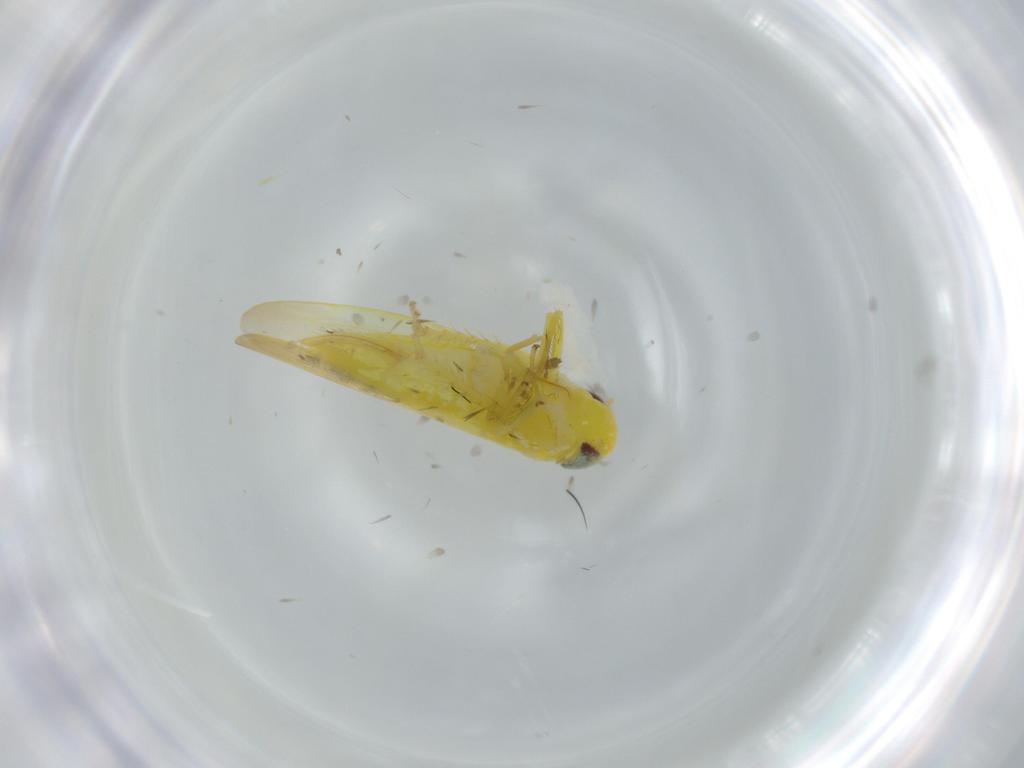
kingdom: Animalia
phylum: Arthropoda
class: Insecta
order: Hemiptera
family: Cicadellidae
